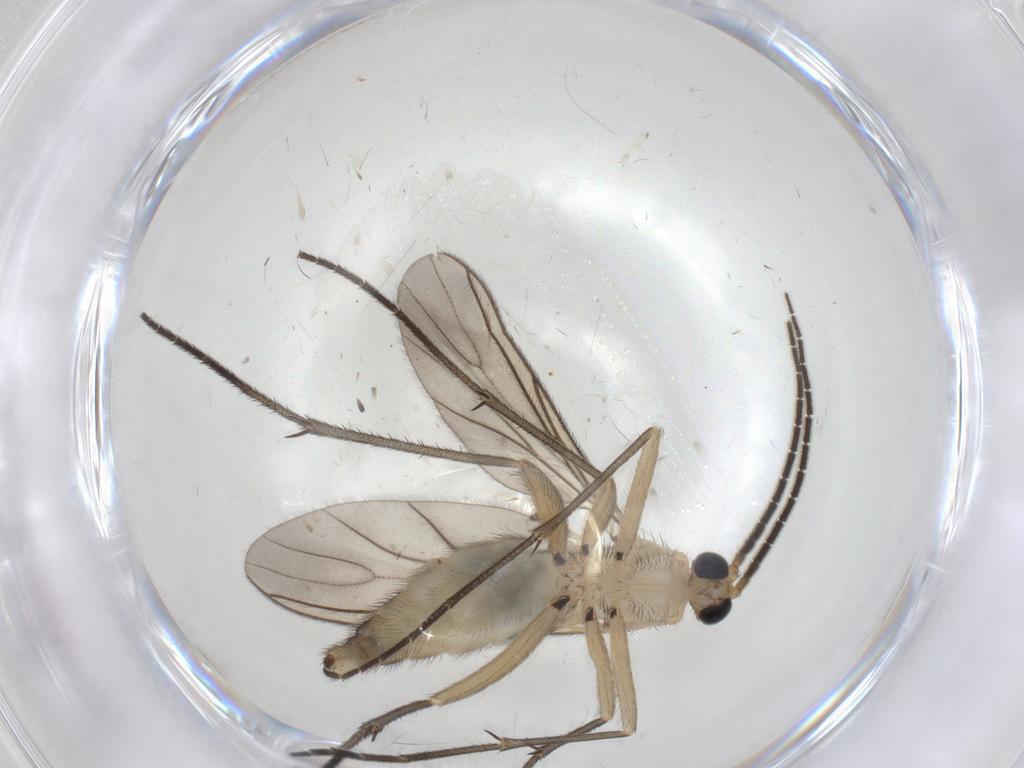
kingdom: Animalia
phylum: Arthropoda
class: Insecta
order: Diptera
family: Sciaridae
